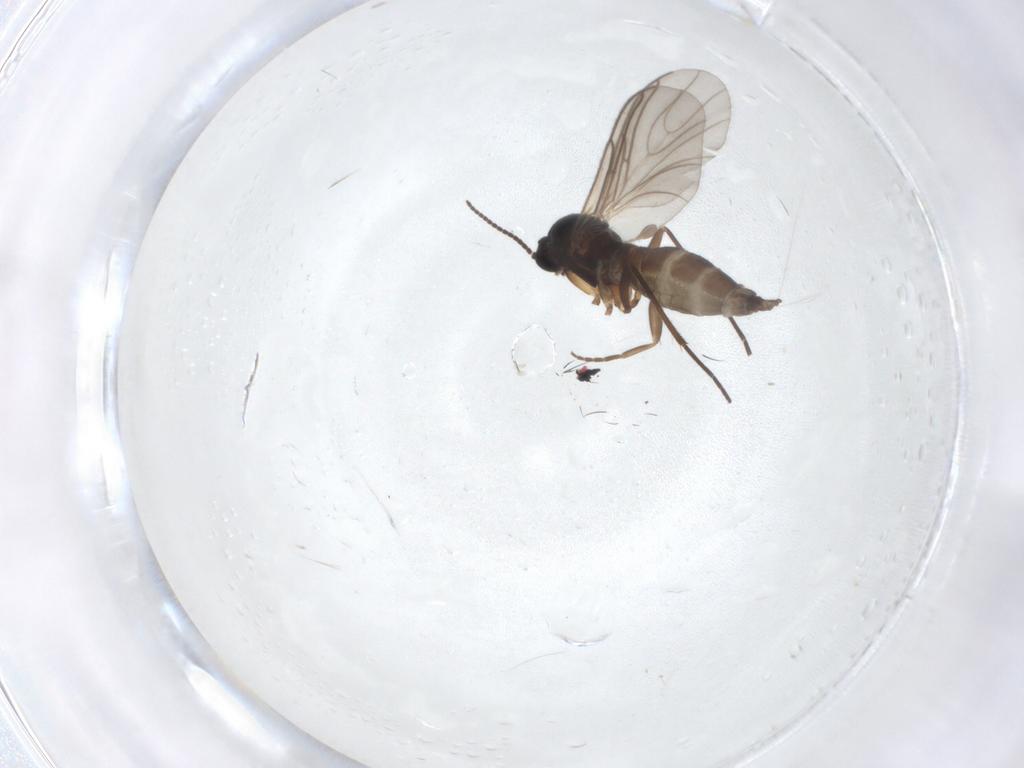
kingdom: Animalia
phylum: Arthropoda
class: Insecta
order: Diptera
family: Sciaridae
